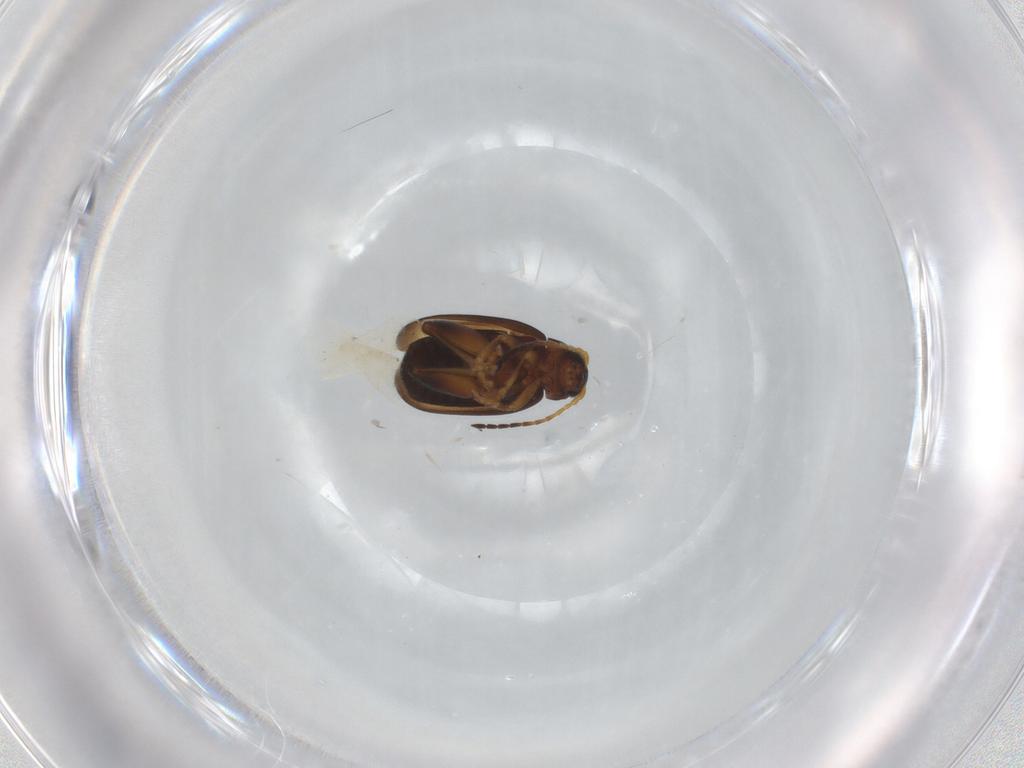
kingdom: Animalia
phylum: Arthropoda
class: Insecta
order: Coleoptera
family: Chrysomelidae
